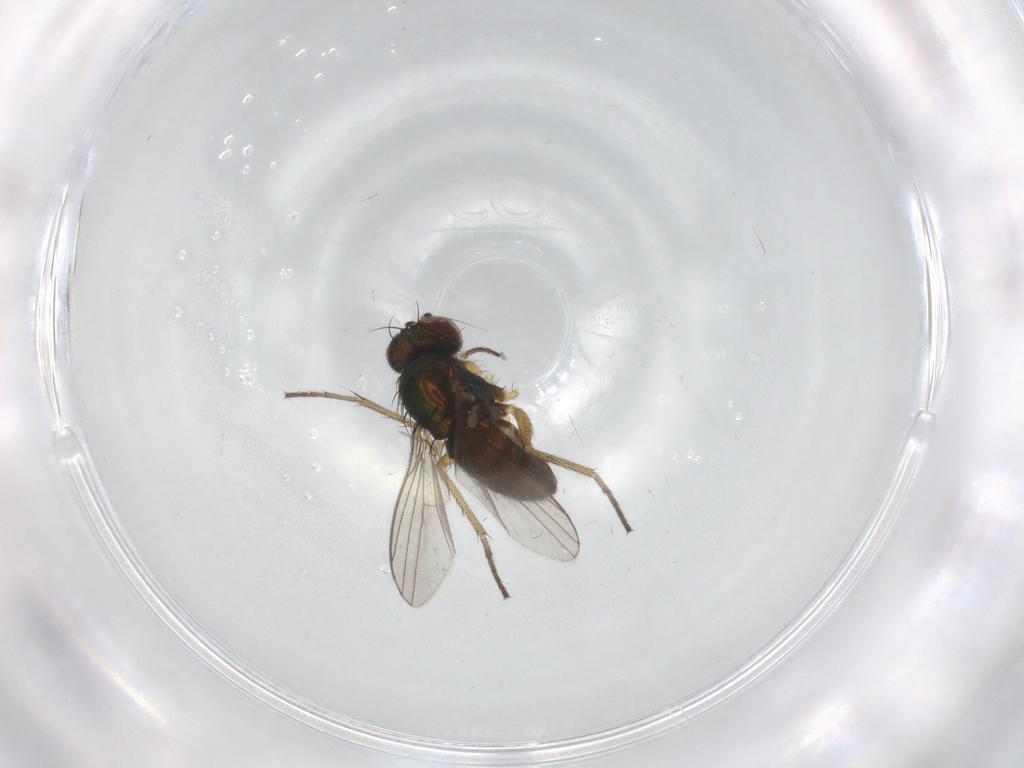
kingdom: Animalia
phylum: Arthropoda
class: Insecta
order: Diptera
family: Dolichopodidae
